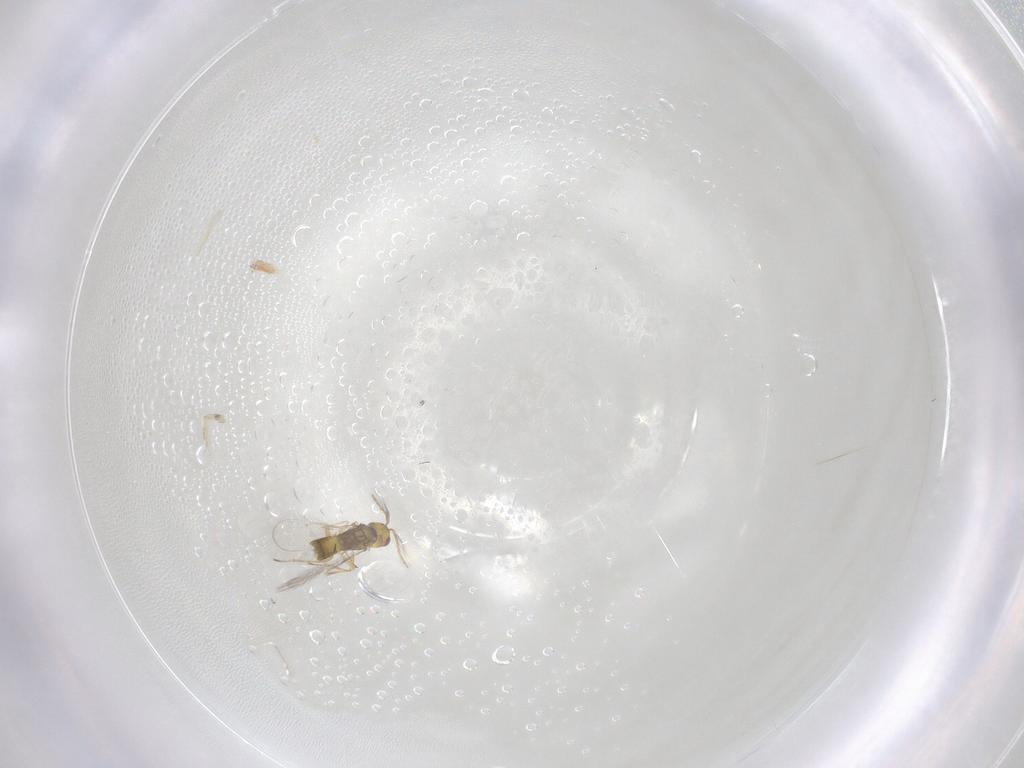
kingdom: Animalia
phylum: Arthropoda
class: Insecta
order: Hymenoptera
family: Eulophidae
